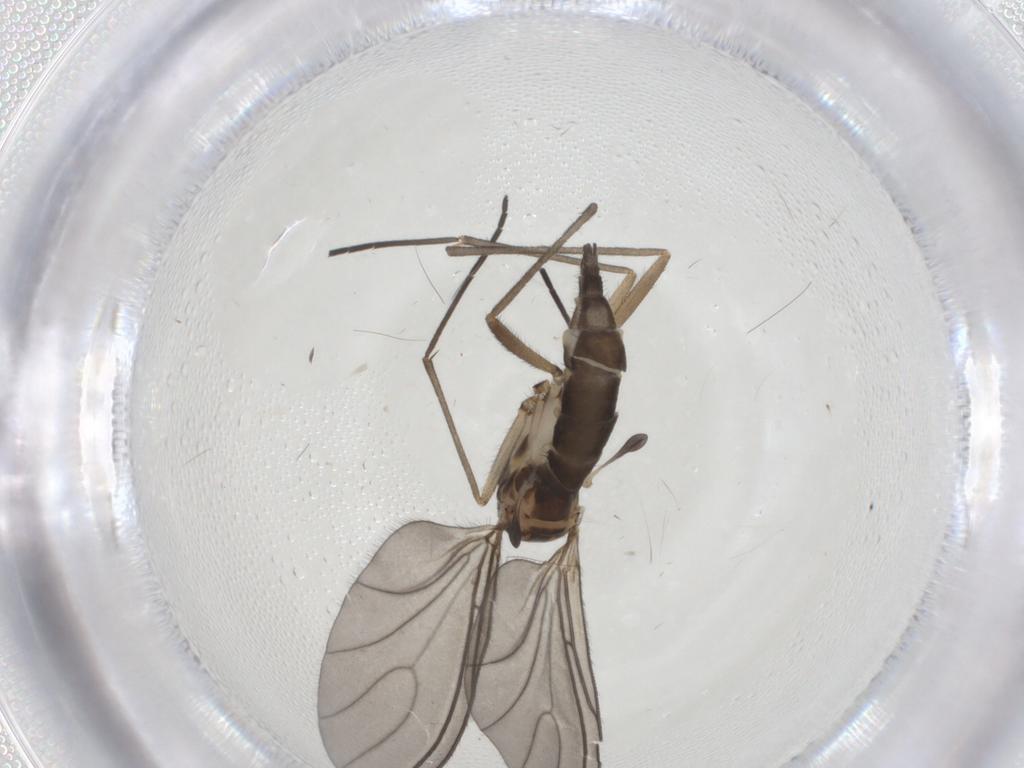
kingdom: Animalia
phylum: Arthropoda
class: Insecta
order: Diptera
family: Sciaridae
